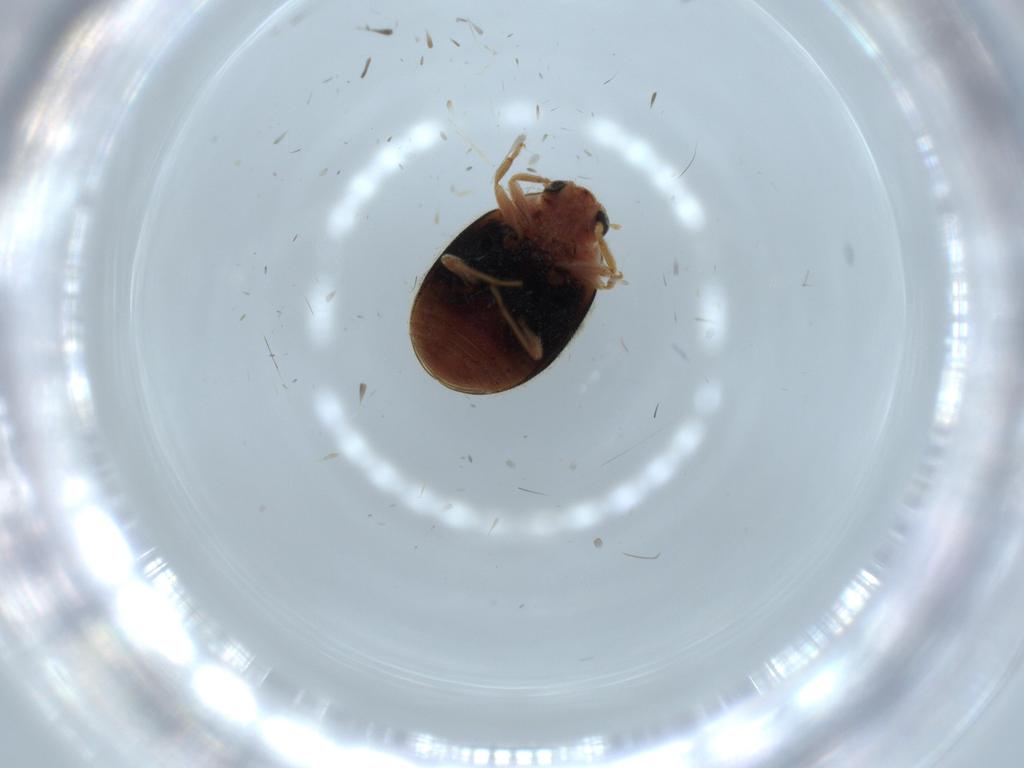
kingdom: Animalia
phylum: Arthropoda
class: Insecta
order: Coleoptera
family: Coccinellidae
